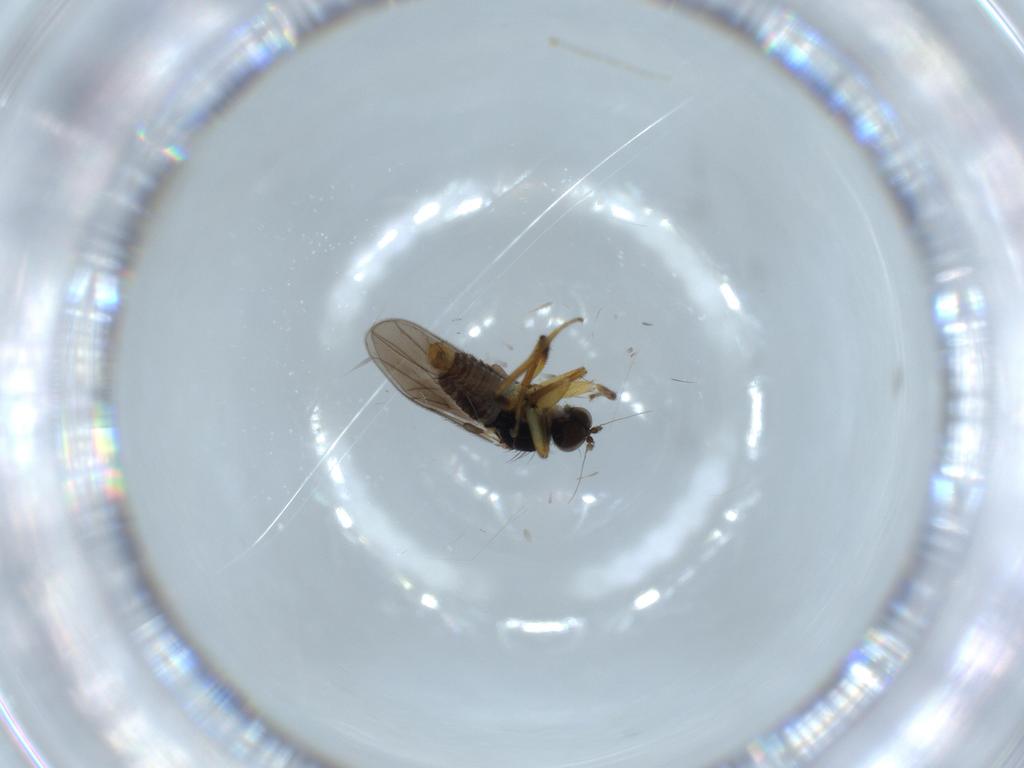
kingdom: Animalia
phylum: Arthropoda
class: Insecta
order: Diptera
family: Hybotidae
